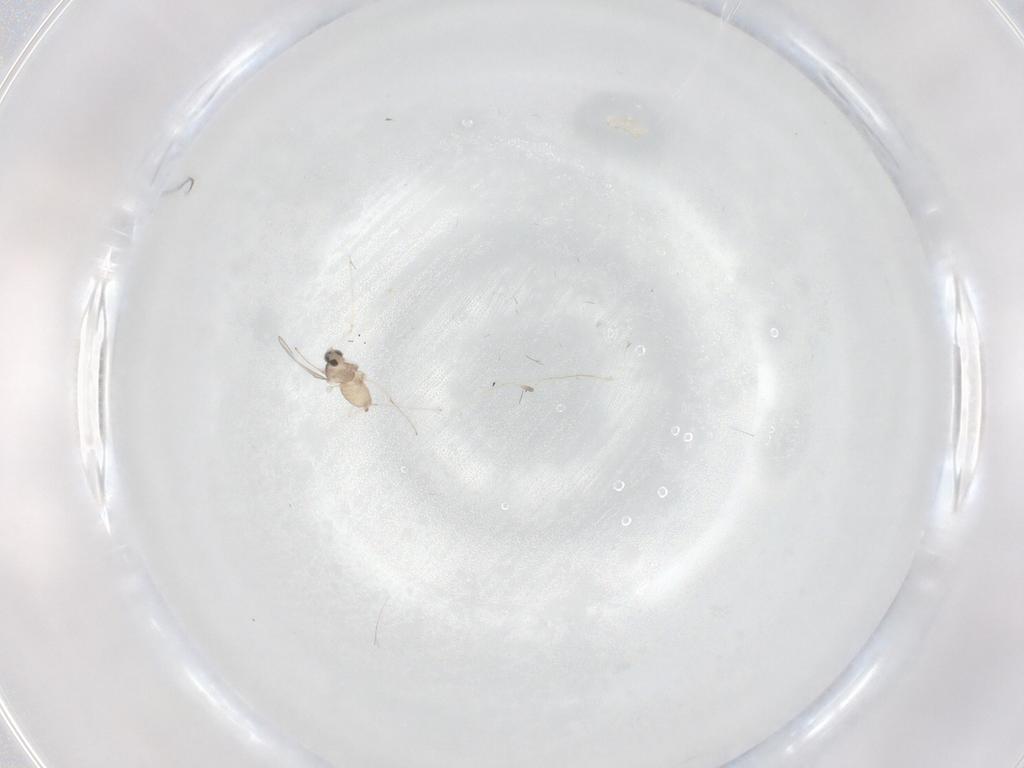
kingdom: Animalia
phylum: Arthropoda
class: Insecta
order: Diptera
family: Cecidomyiidae
